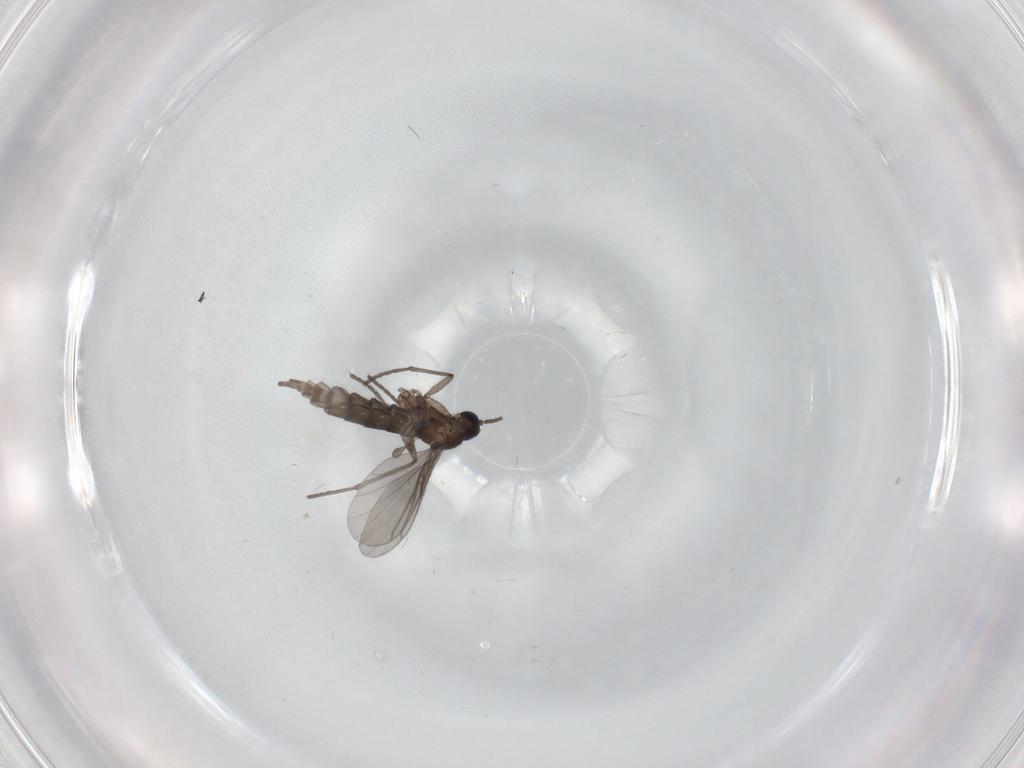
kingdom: Animalia
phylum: Arthropoda
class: Insecta
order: Diptera
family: Sciaridae
